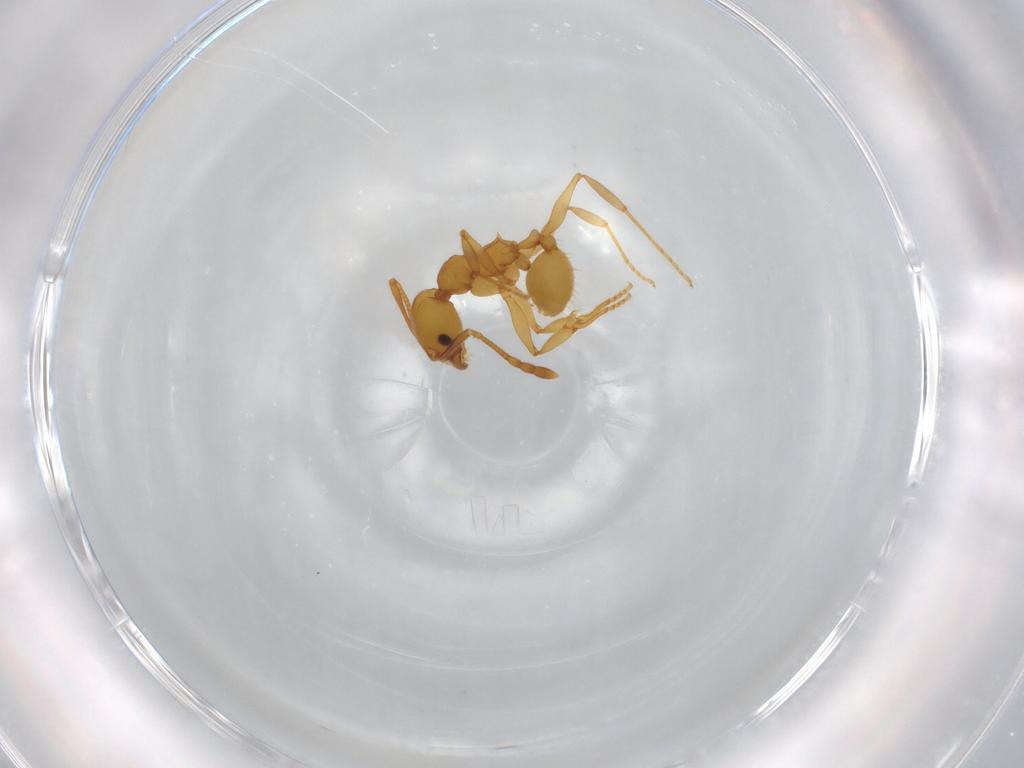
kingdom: Animalia
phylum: Arthropoda
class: Insecta
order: Hymenoptera
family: Formicidae
